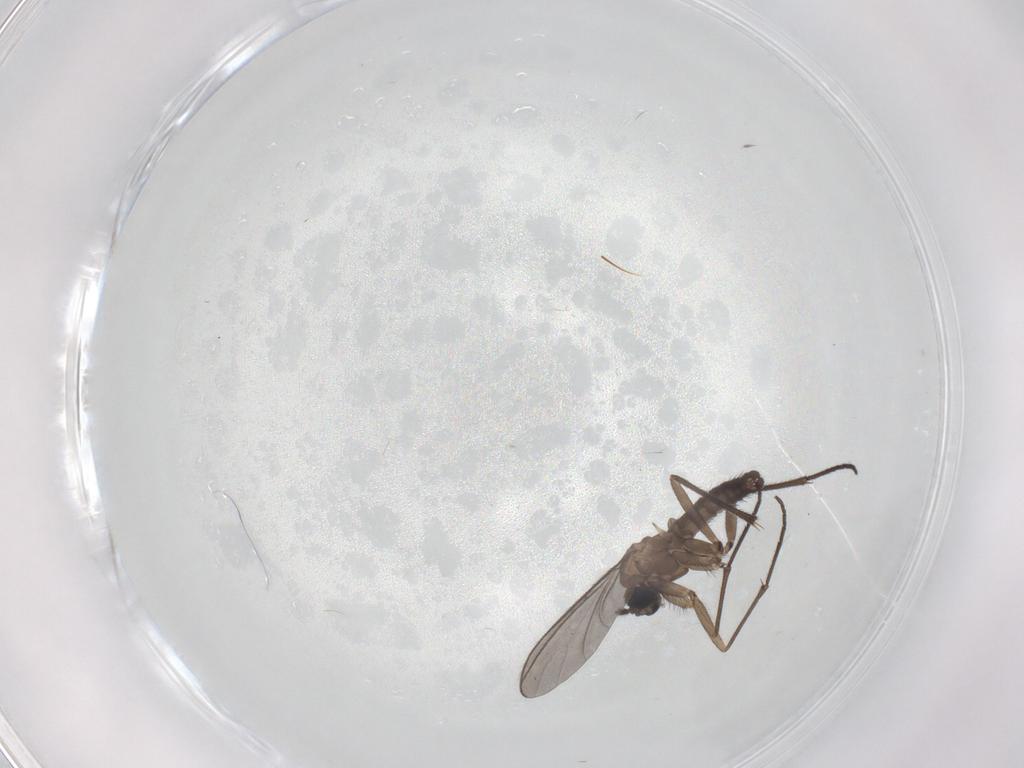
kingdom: Animalia
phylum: Arthropoda
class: Insecta
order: Diptera
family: Sciaridae
